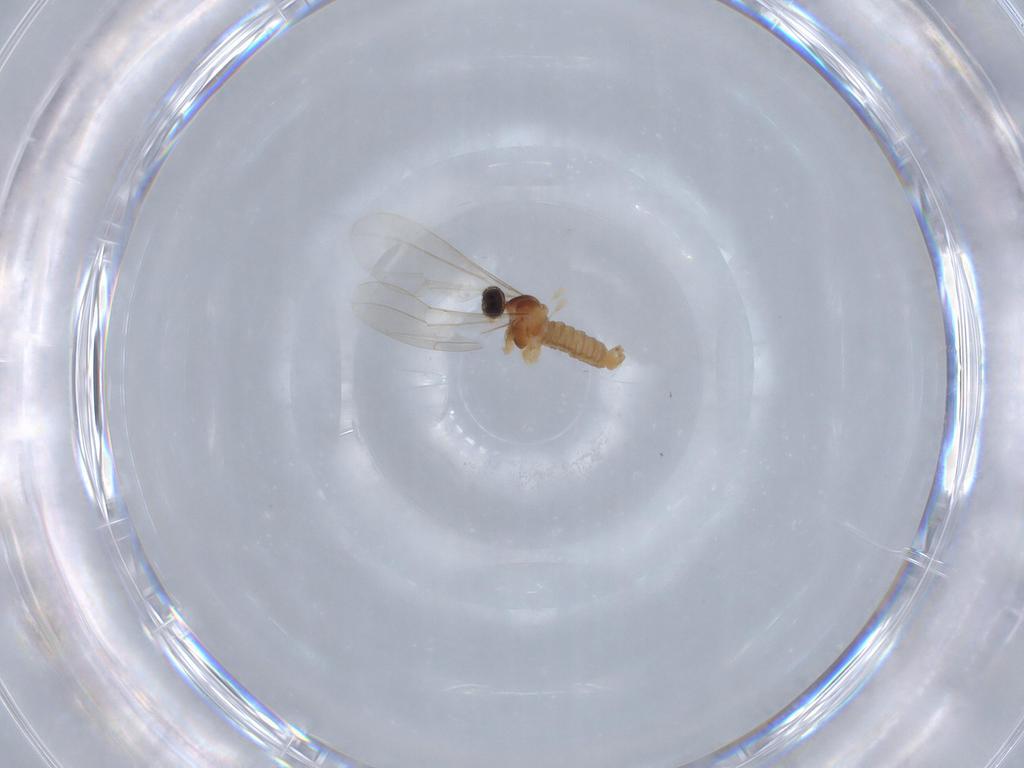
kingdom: Animalia
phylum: Arthropoda
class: Insecta
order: Diptera
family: Cecidomyiidae
